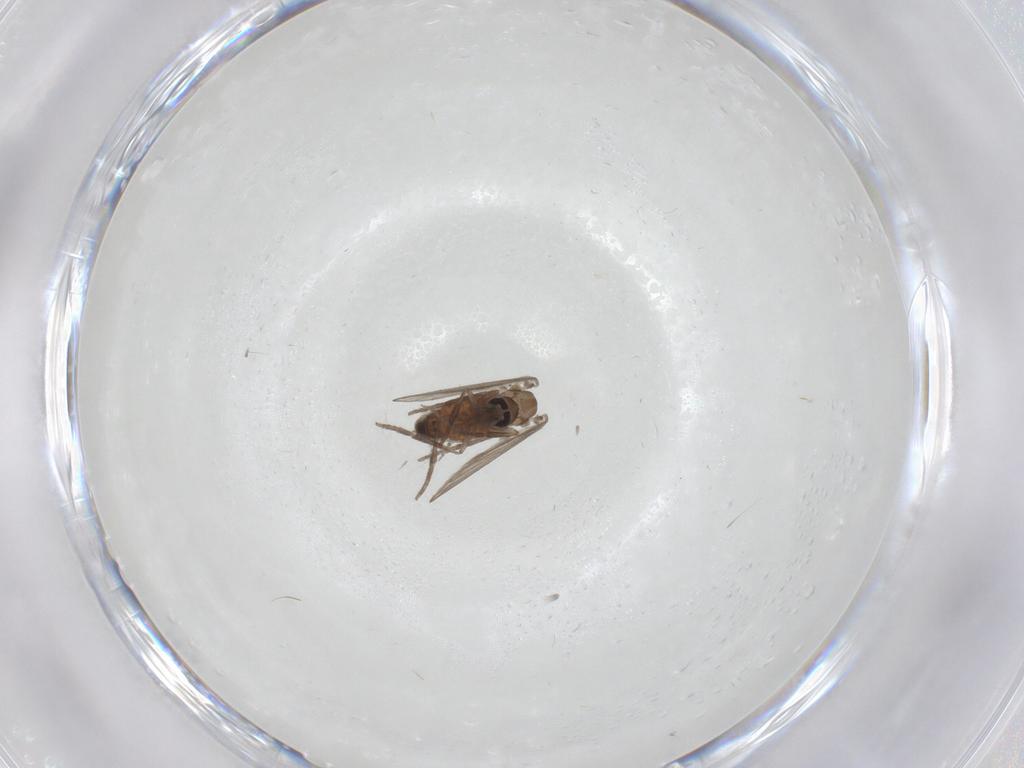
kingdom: Animalia
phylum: Arthropoda
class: Insecta
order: Diptera
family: Psychodidae
